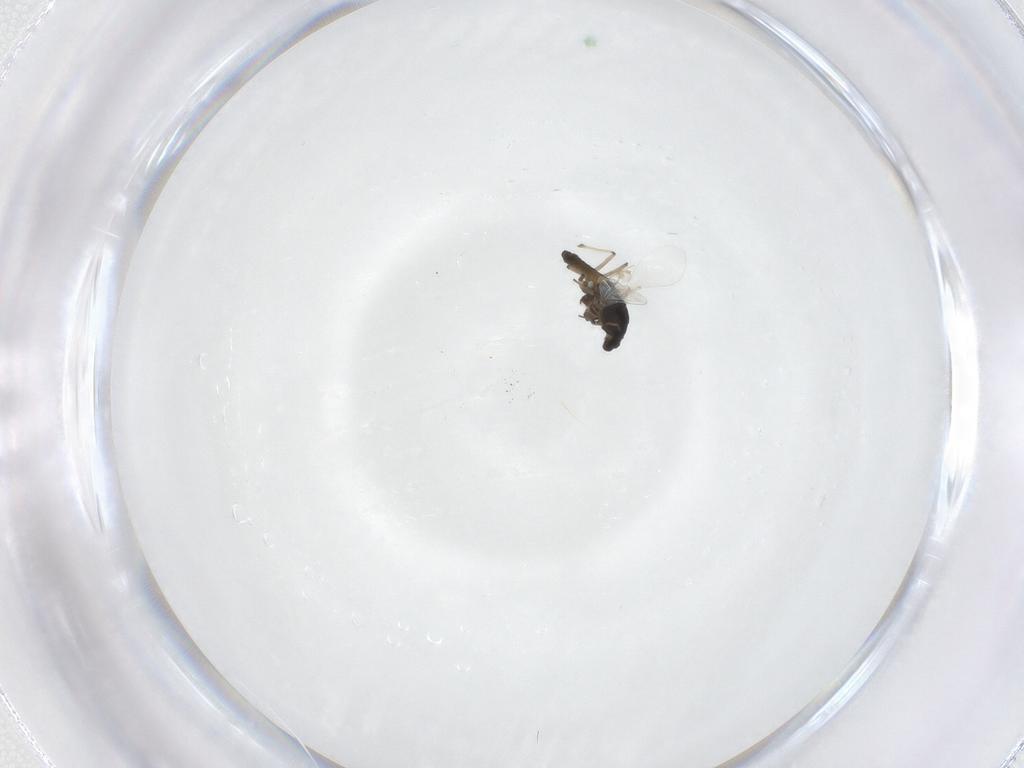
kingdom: Animalia
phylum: Arthropoda
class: Insecta
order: Diptera
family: Chironomidae
